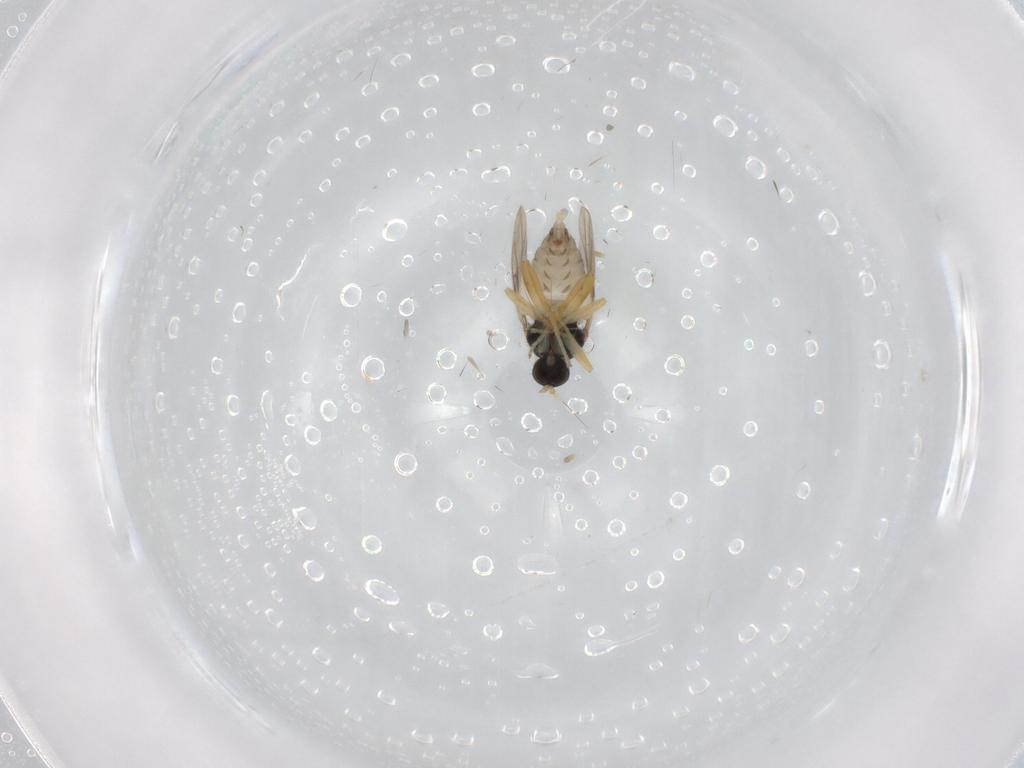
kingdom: Animalia
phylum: Arthropoda
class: Insecta
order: Diptera
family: Hybotidae
